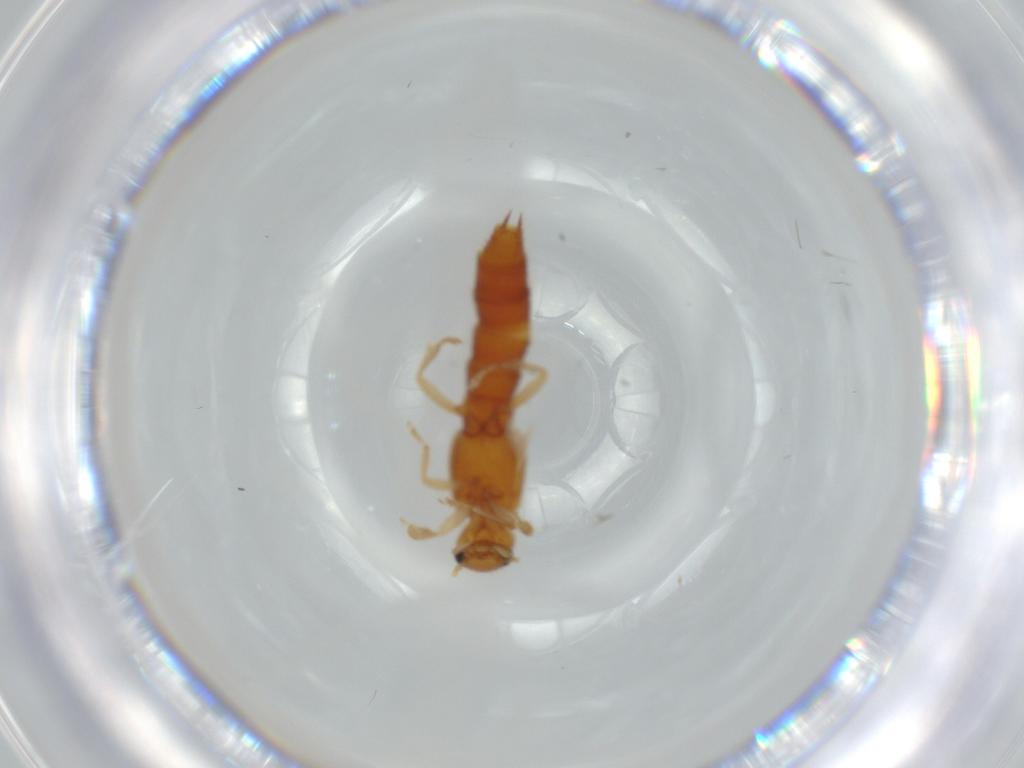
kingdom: Animalia
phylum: Arthropoda
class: Insecta
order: Coleoptera
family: Staphylinidae
